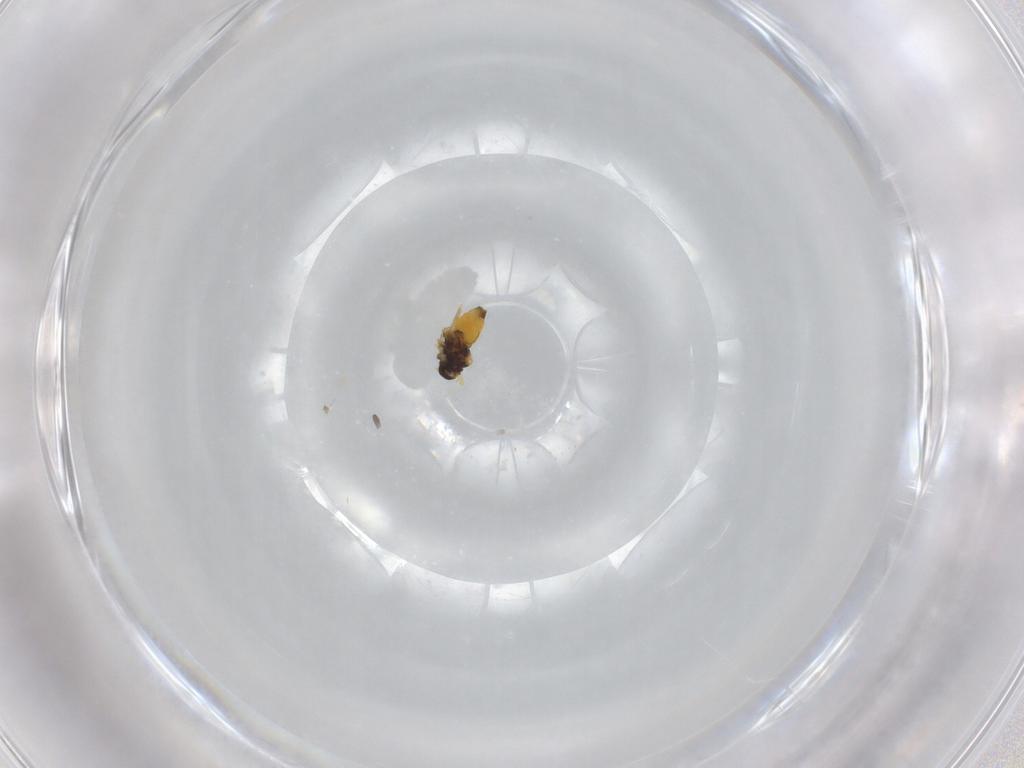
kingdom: Animalia
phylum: Arthropoda
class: Insecta
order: Hemiptera
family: Aleyrodidae
